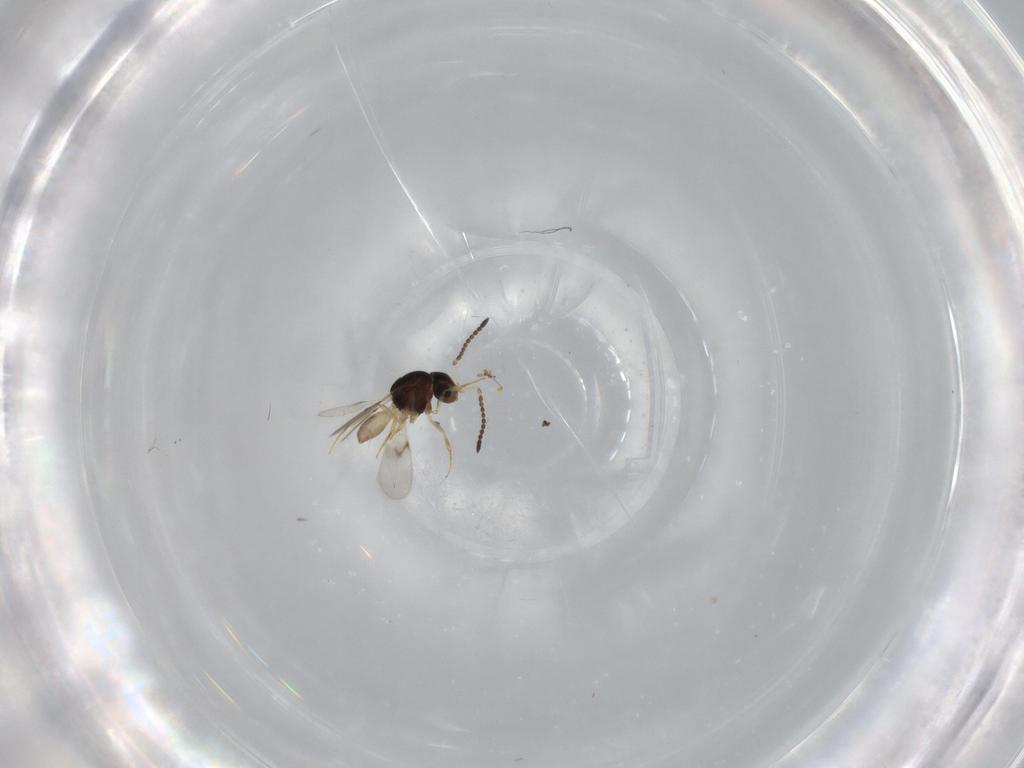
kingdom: Animalia
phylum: Arthropoda
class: Insecta
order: Hymenoptera
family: Scelionidae
